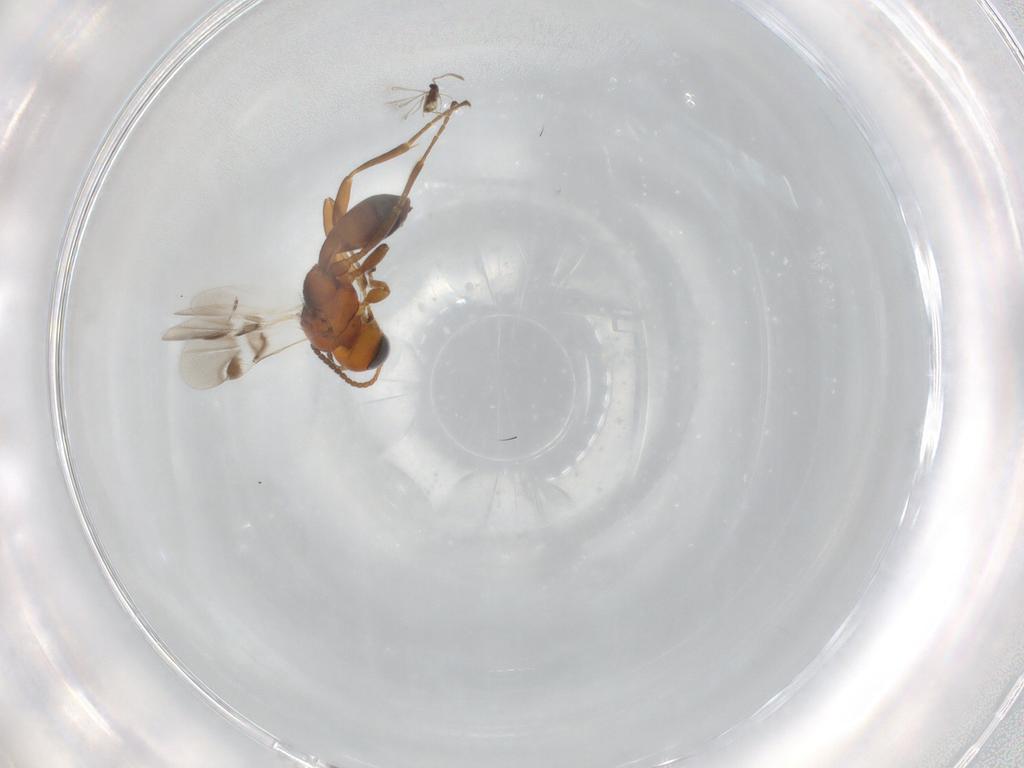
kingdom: Animalia
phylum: Arthropoda
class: Insecta
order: Hymenoptera
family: Braconidae
